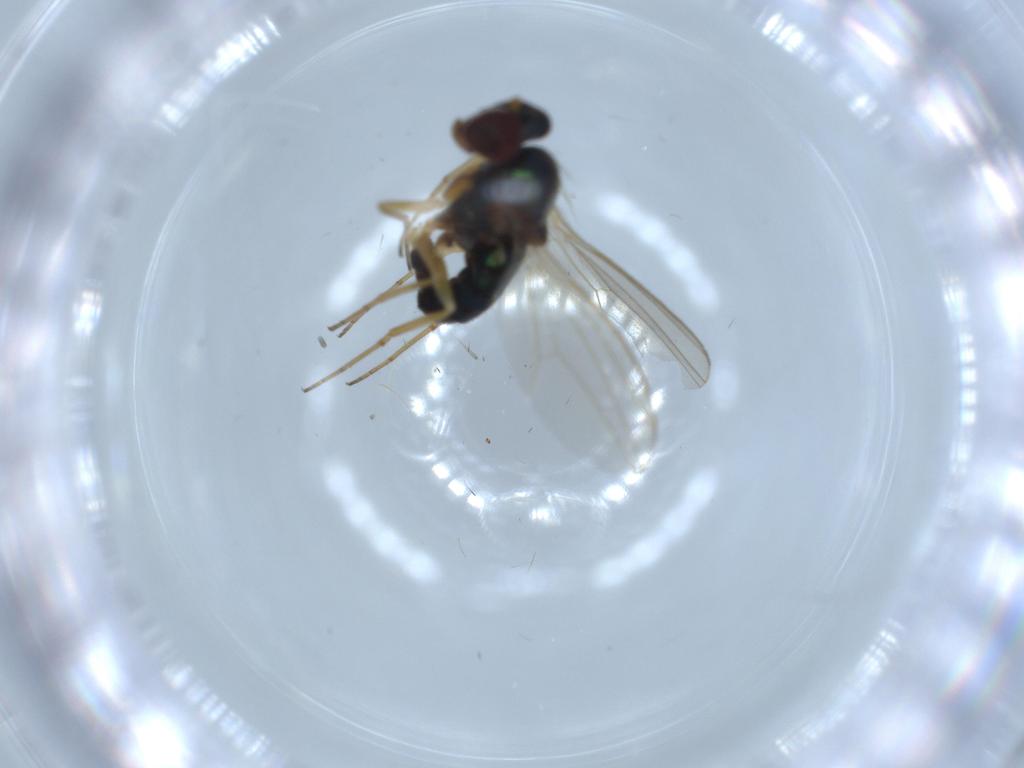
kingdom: Animalia
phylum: Arthropoda
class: Insecta
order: Diptera
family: Dolichopodidae
